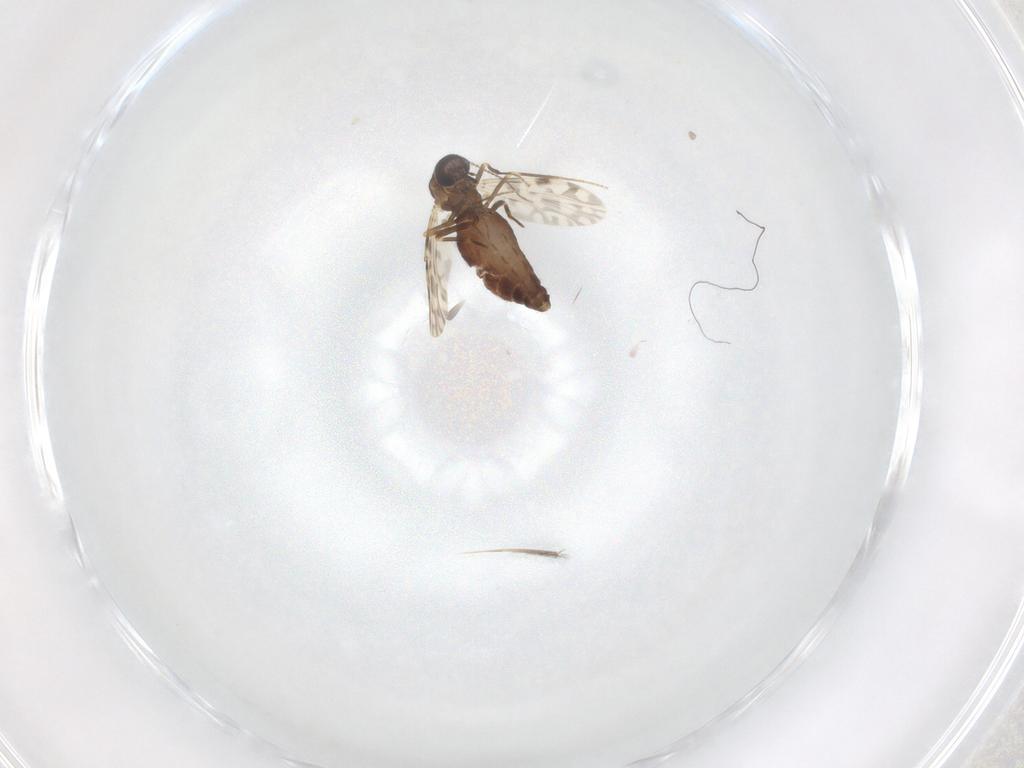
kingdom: Animalia
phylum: Arthropoda
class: Insecta
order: Diptera
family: Ceratopogonidae
